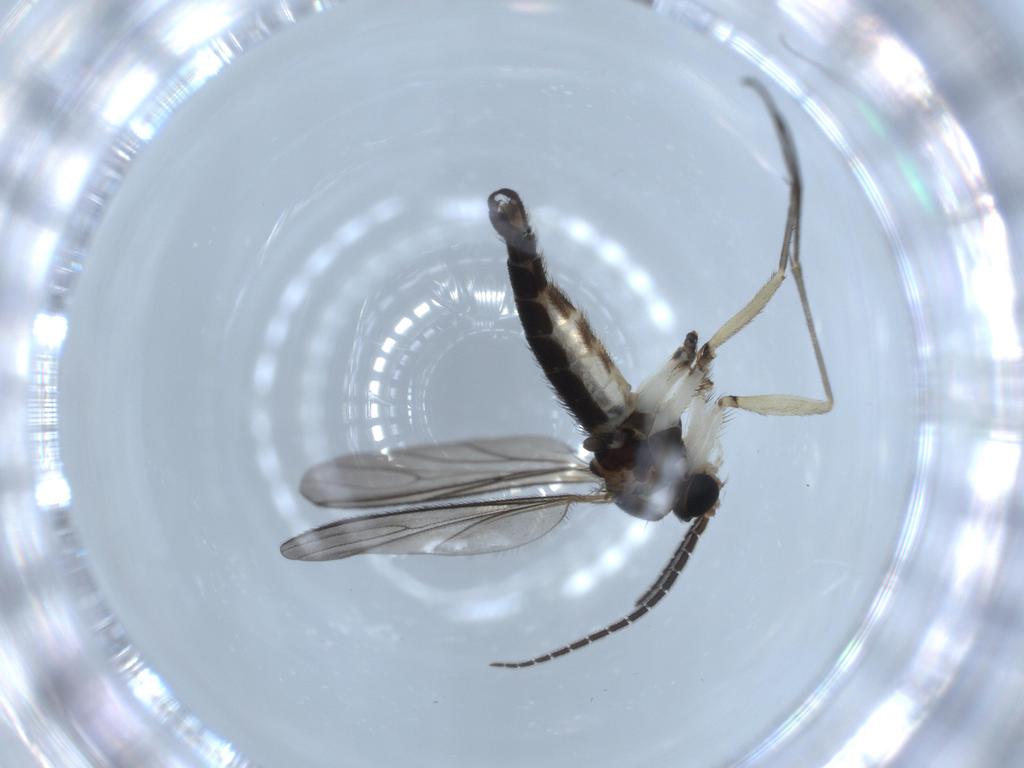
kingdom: Animalia
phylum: Arthropoda
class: Insecta
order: Diptera
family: Sciaridae
